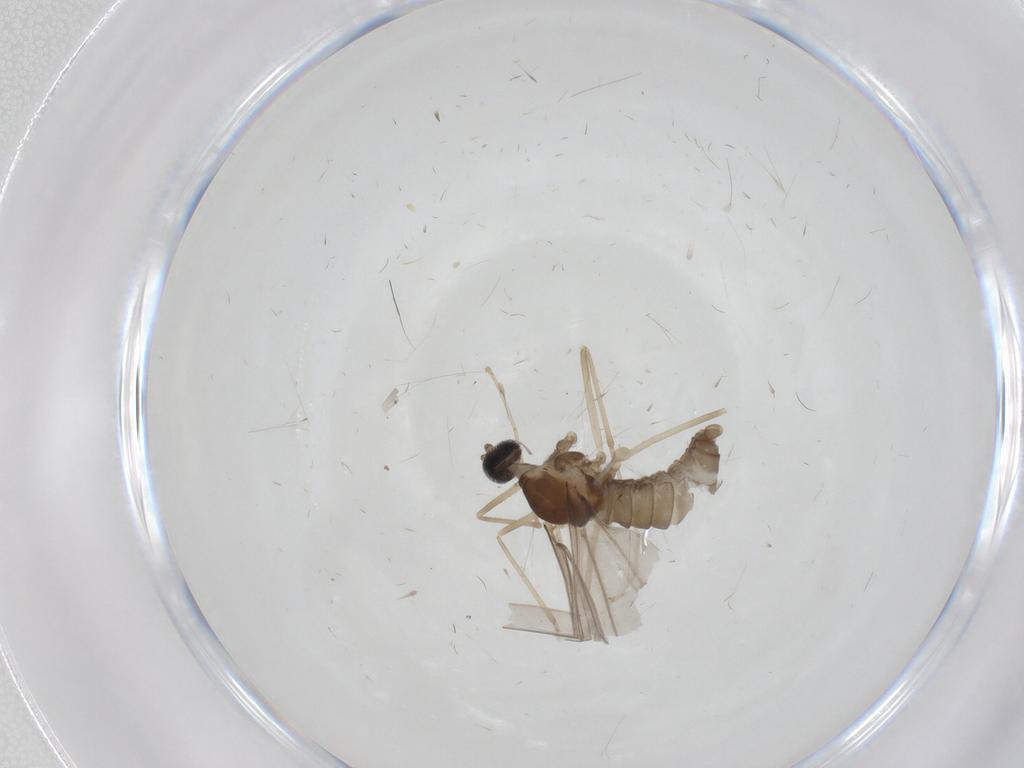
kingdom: Animalia
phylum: Arthropoda
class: Insecta
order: Diptera
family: Cecidomyiidae
